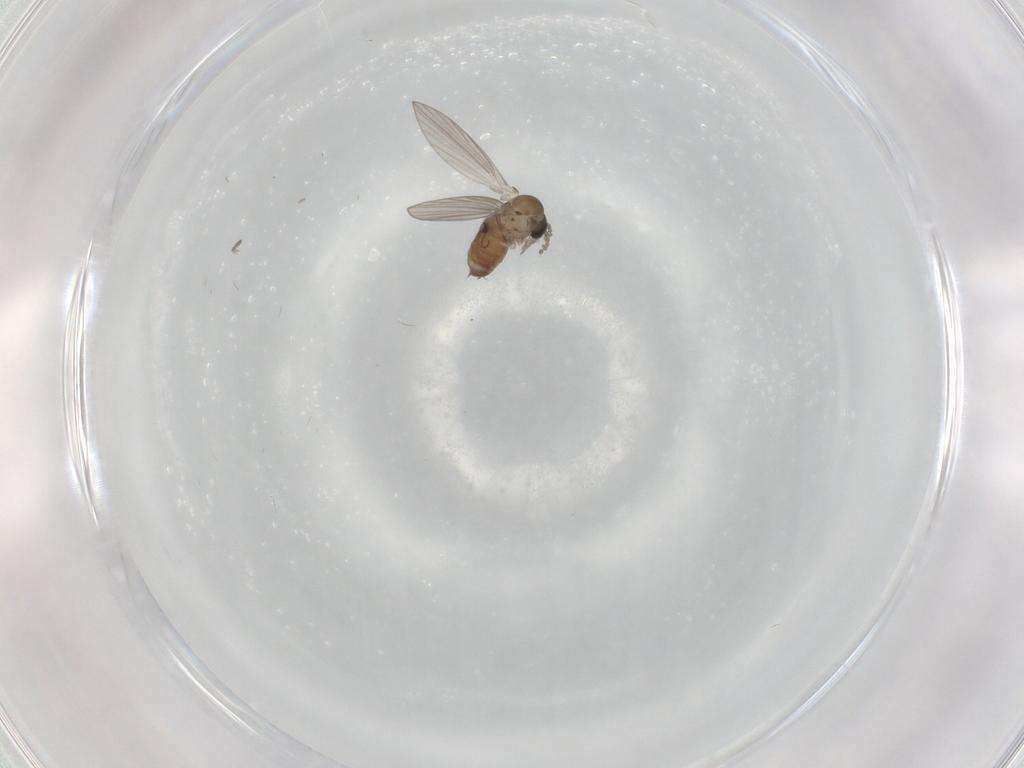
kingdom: Animalia
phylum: Arthropoda
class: Insecta
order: Diptera
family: Psychodidae
